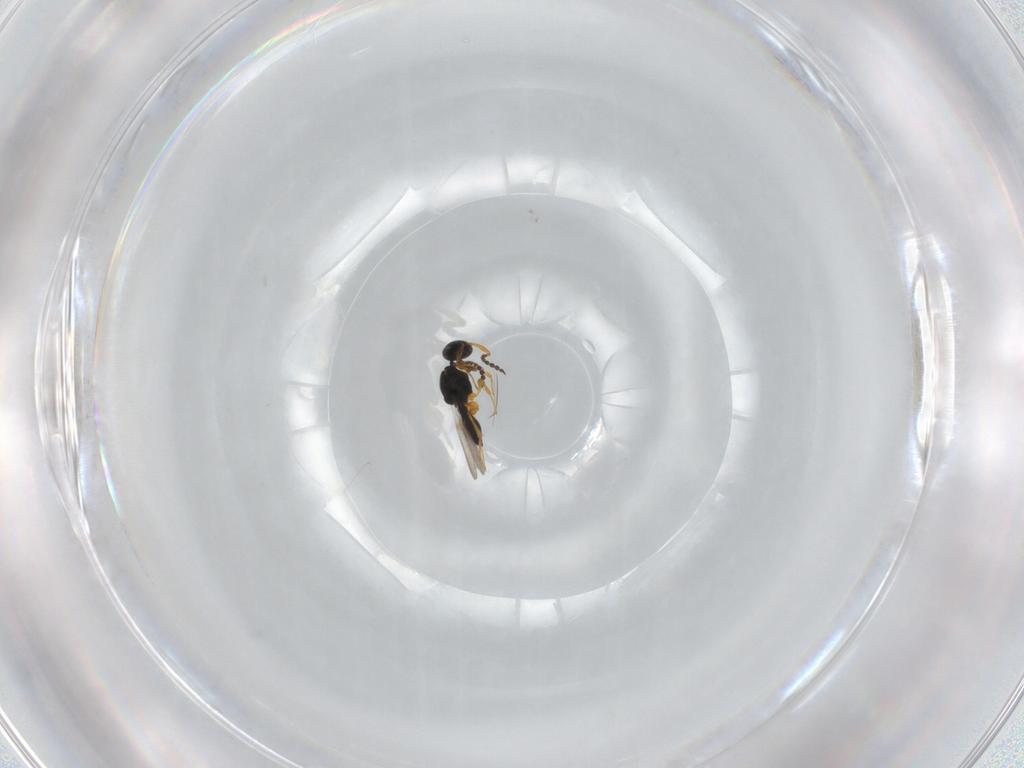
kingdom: Animalia
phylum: Arthropoda
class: Insecta
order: Hymenoptera
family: Platygastridae
